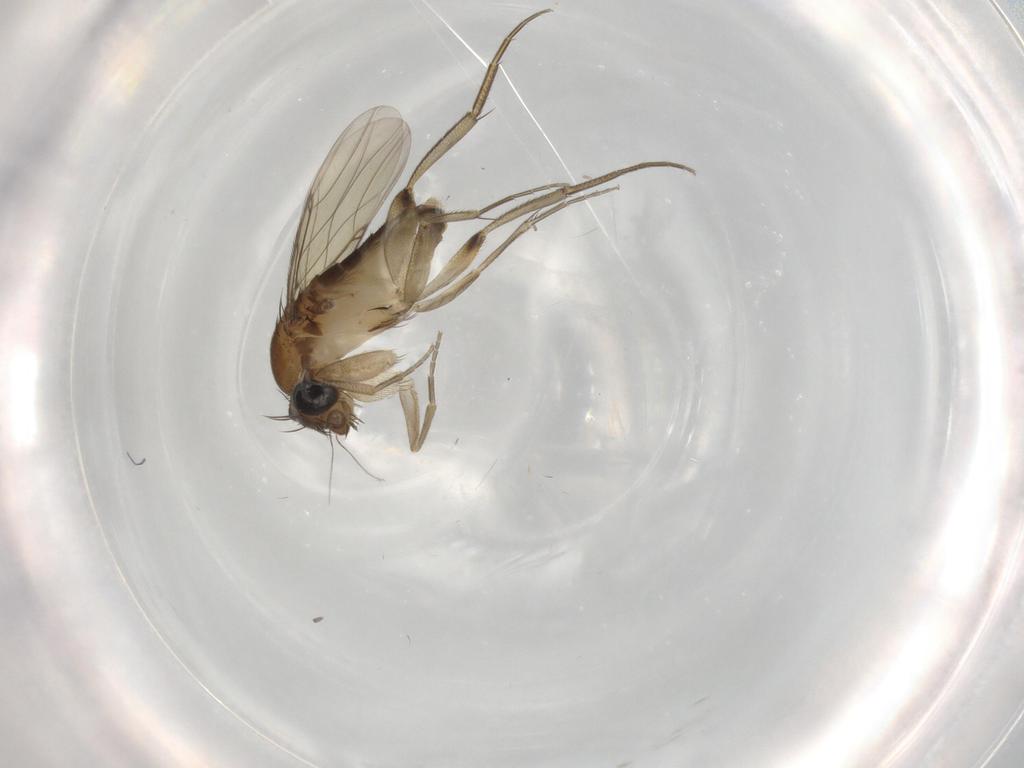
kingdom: Animalia
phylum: Arthropoda
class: Insecta
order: Diptera
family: Phoridae
